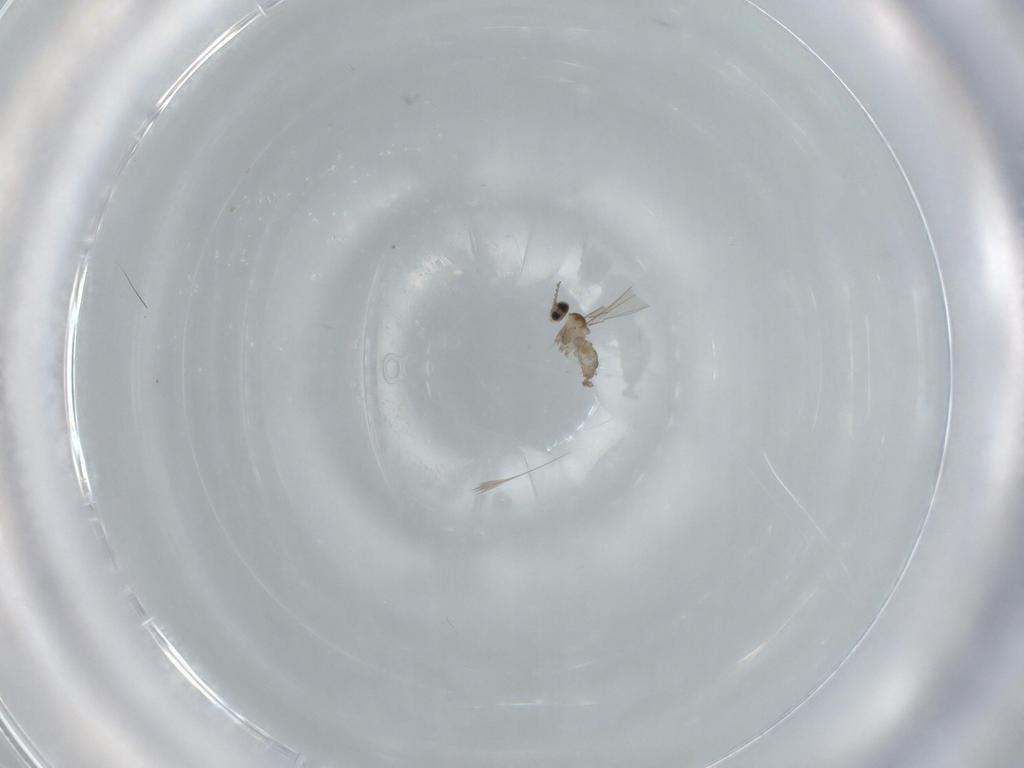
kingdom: Animalia
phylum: Arthropoda
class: Insecta
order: Diptera
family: Cecidomyiidae
